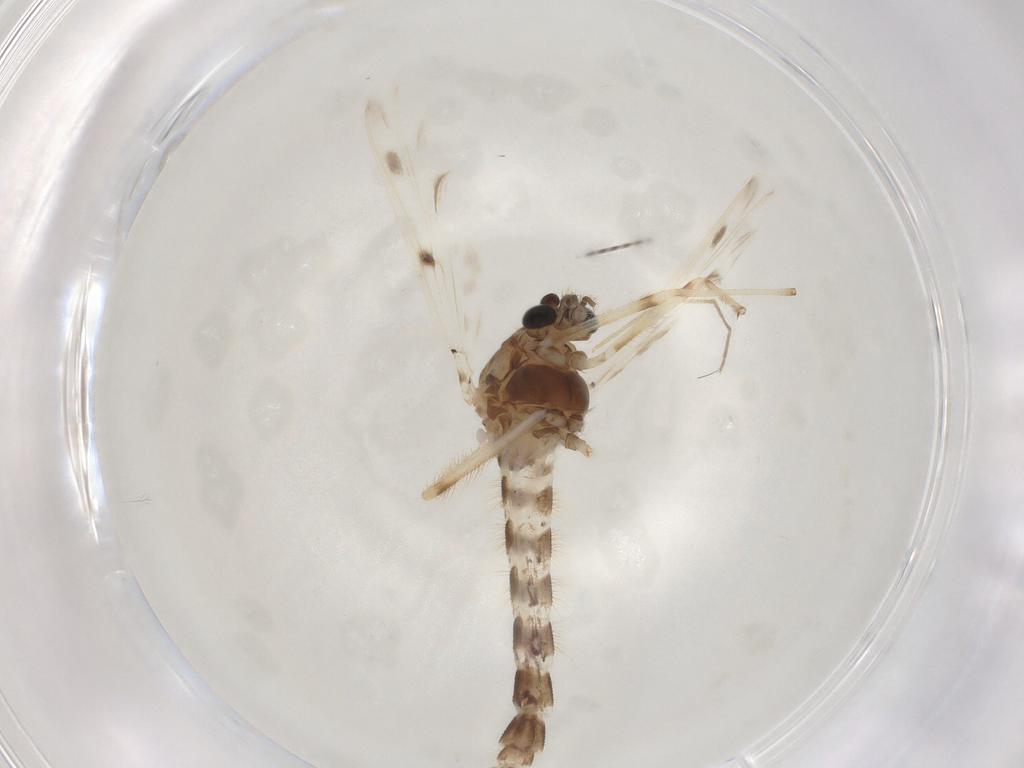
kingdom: Animalia
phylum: Arthropoda
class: Insecta
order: Diptera
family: Chironomidae
